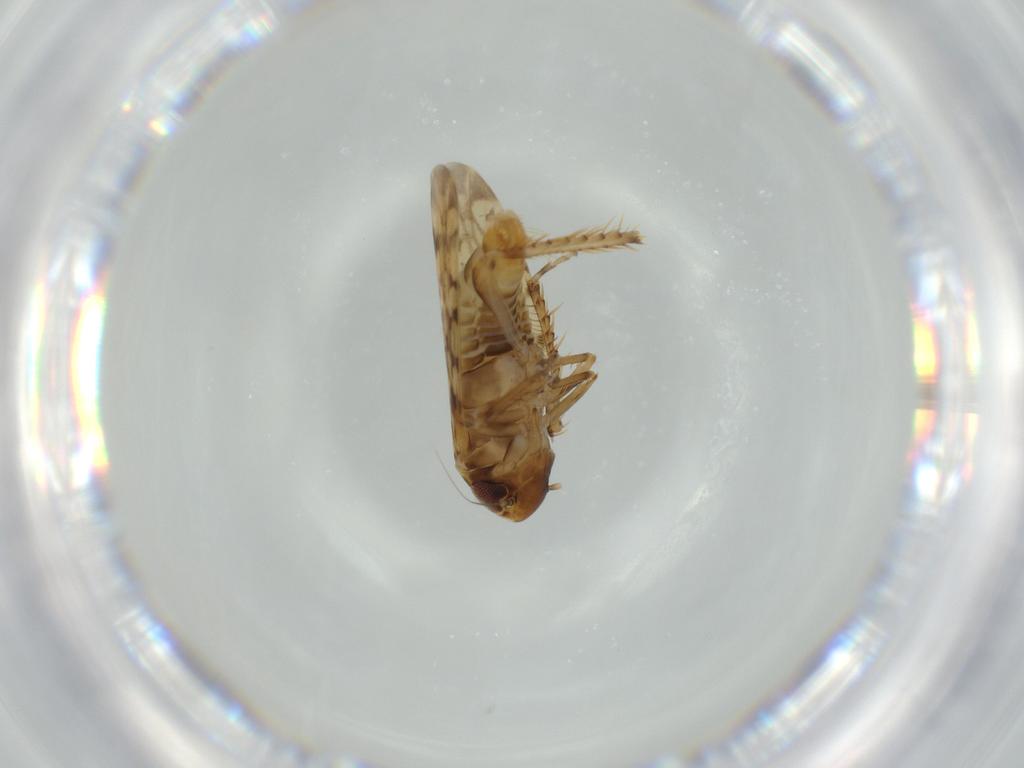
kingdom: Animalia
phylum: Arthropoda
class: Insecta
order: Hemiptera
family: Cicadellidae
